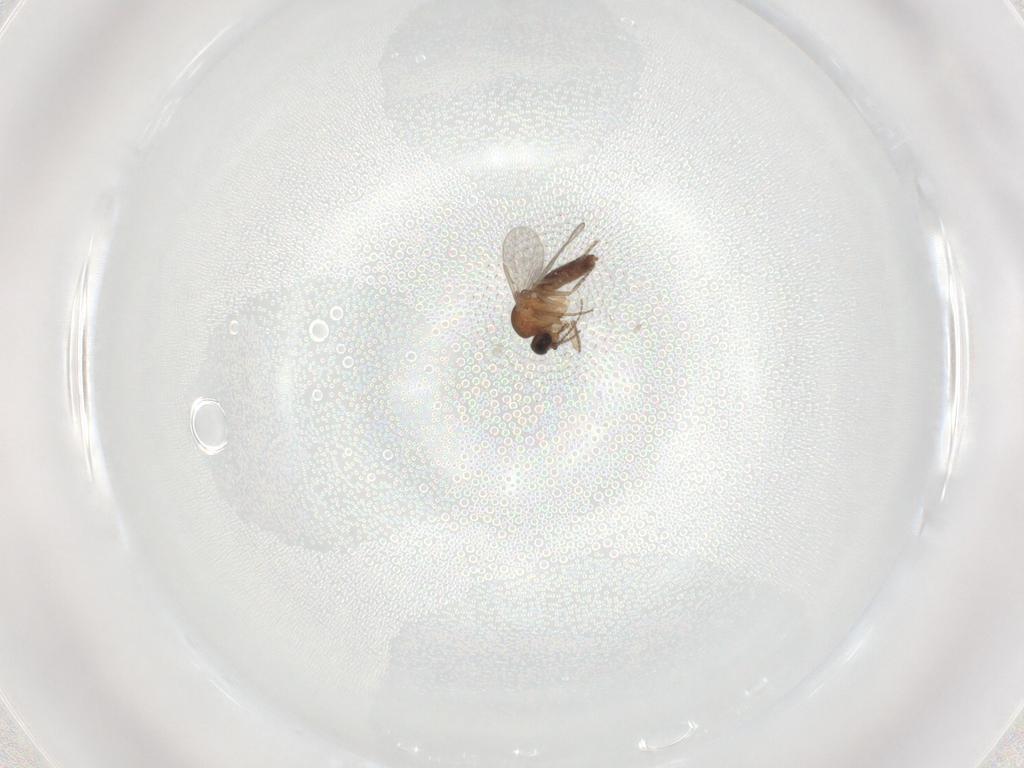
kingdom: Animalia
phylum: Arthropoda
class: Insecta
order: Diptera
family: Ceratopogonidae
